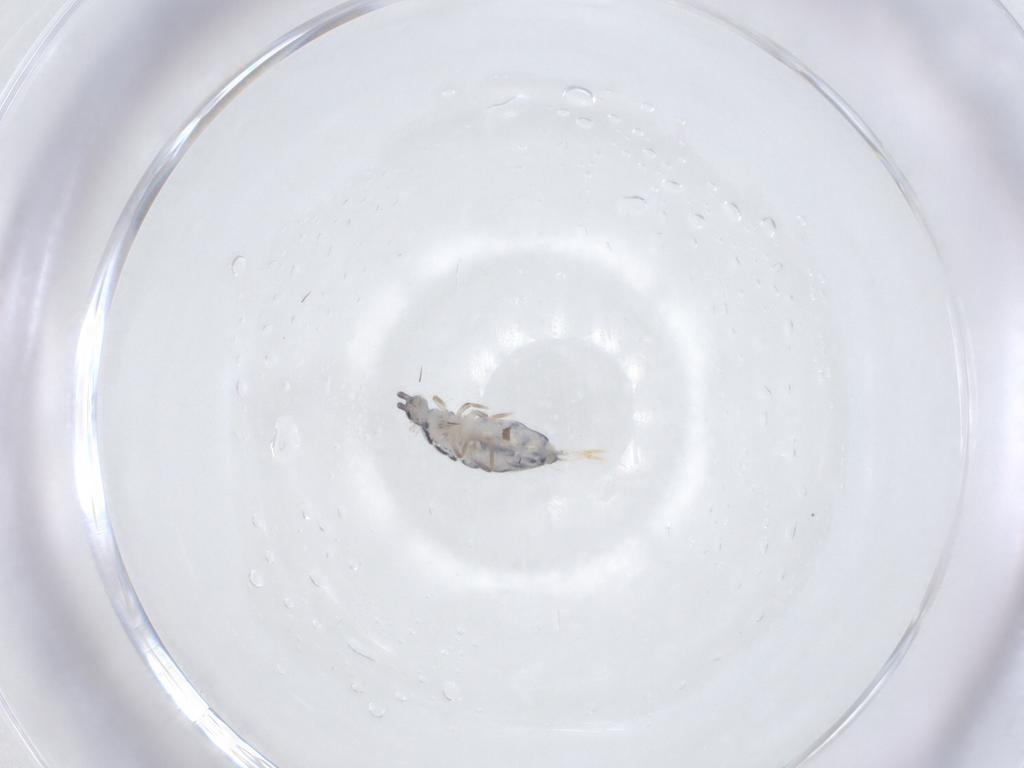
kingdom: Animalia
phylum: Arthropoda
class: Collembola
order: Entomobryomorpha
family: Entomobryidae
